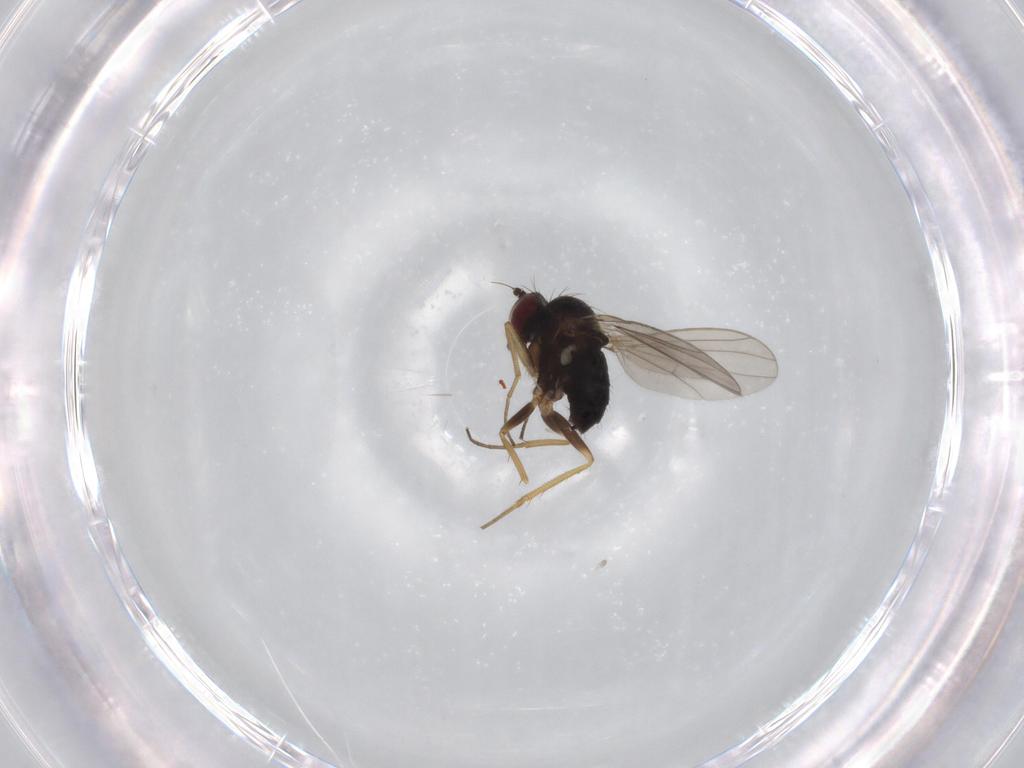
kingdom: Animalia
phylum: Arthropoda
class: Insecta
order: Diptera
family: Dolichopodidae
